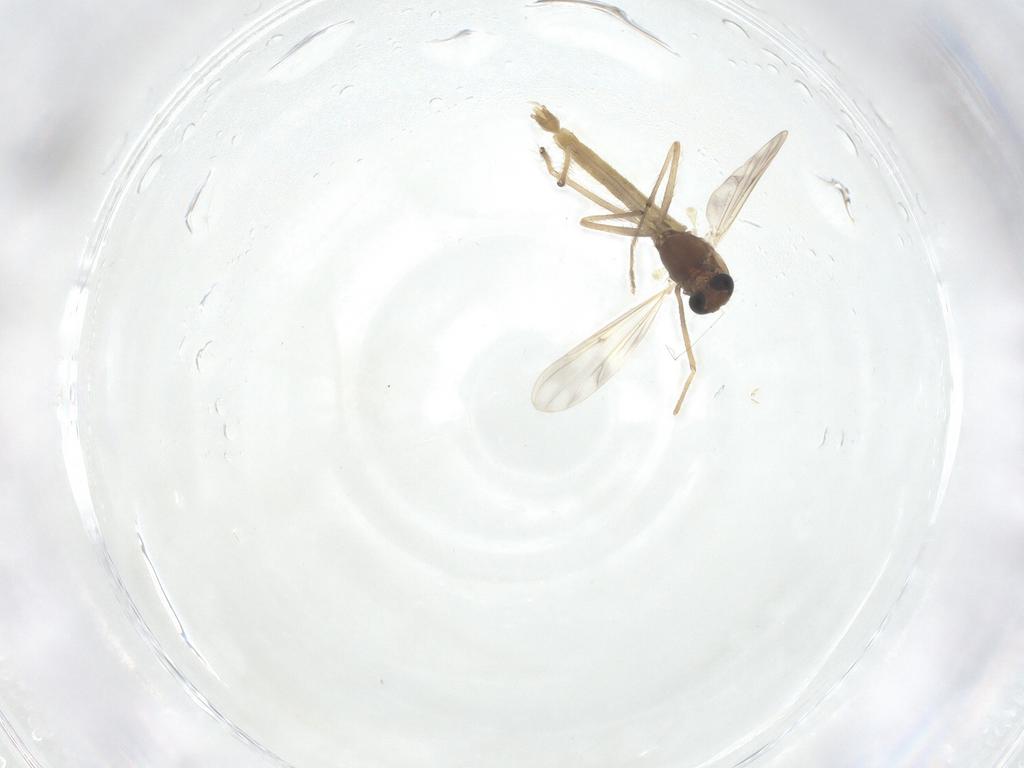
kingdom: Animalia
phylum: Arthropoda
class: Insecta
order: Diptera
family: Chironomidae
